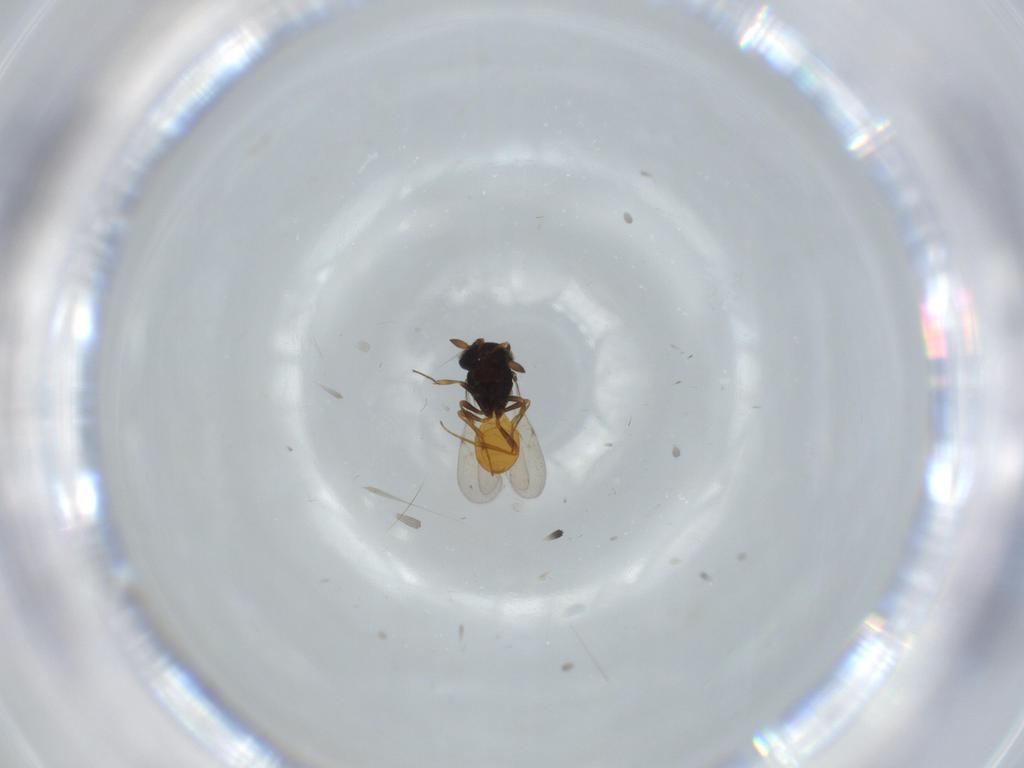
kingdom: Animalia
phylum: Arthropoda
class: Insecta
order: Hymenoptera
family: Scelionidae
